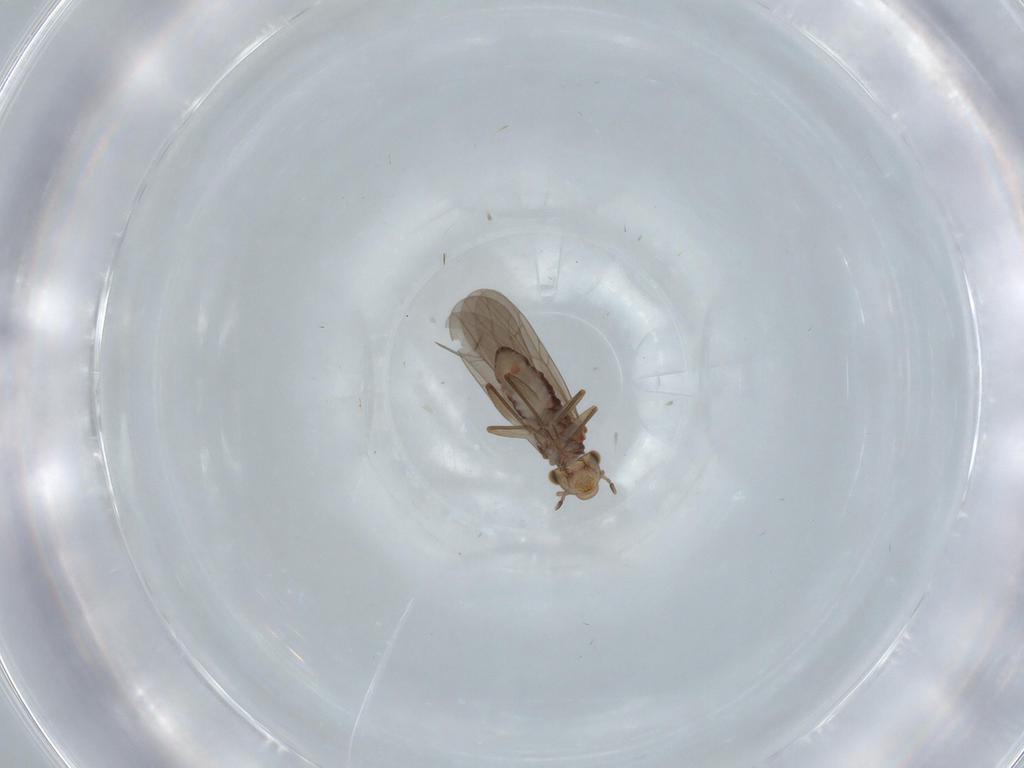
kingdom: Animalia
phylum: Arthropoda
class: Insecta
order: Psocodea
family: Lepidopsocidae
